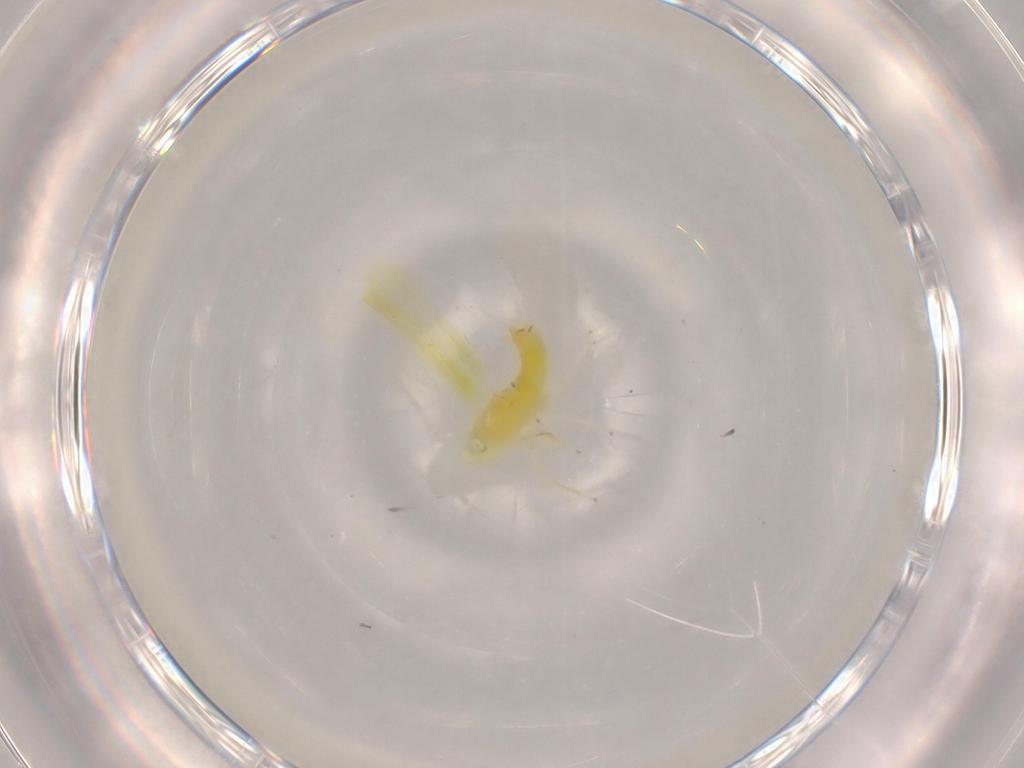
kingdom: Animalia
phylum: Arthropoda
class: Insecta
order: Hemiptera
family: Cicadellidae
